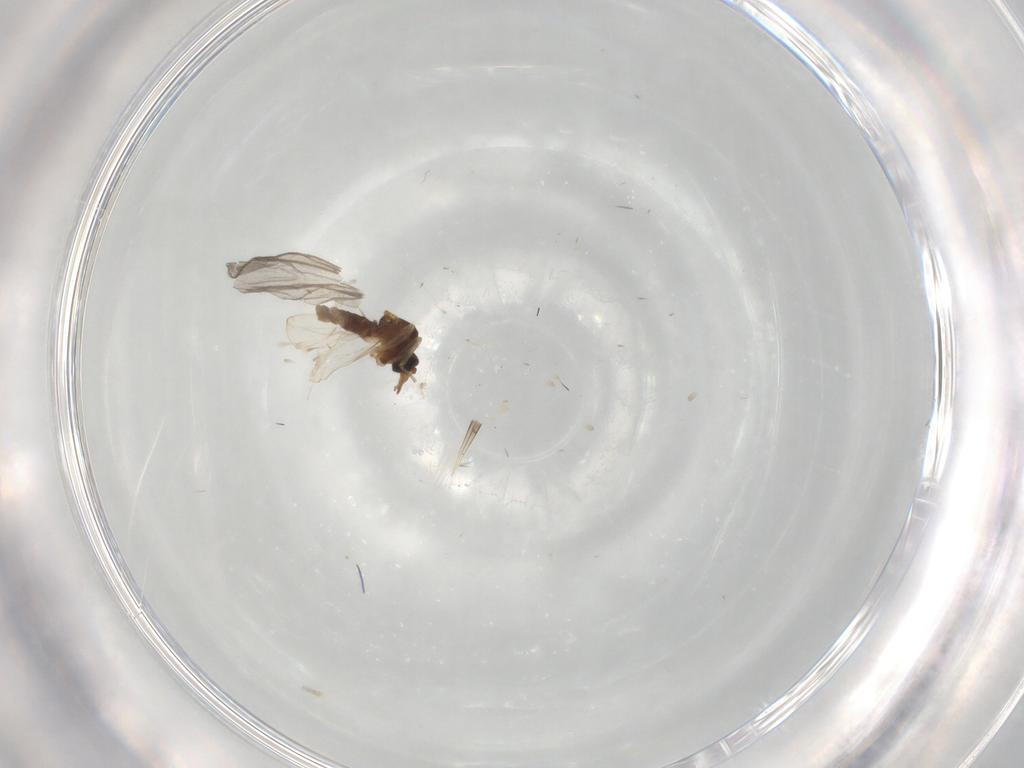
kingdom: Animalia
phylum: Arthropoda
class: Insecta
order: Diptera
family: Ceratopogonidae
